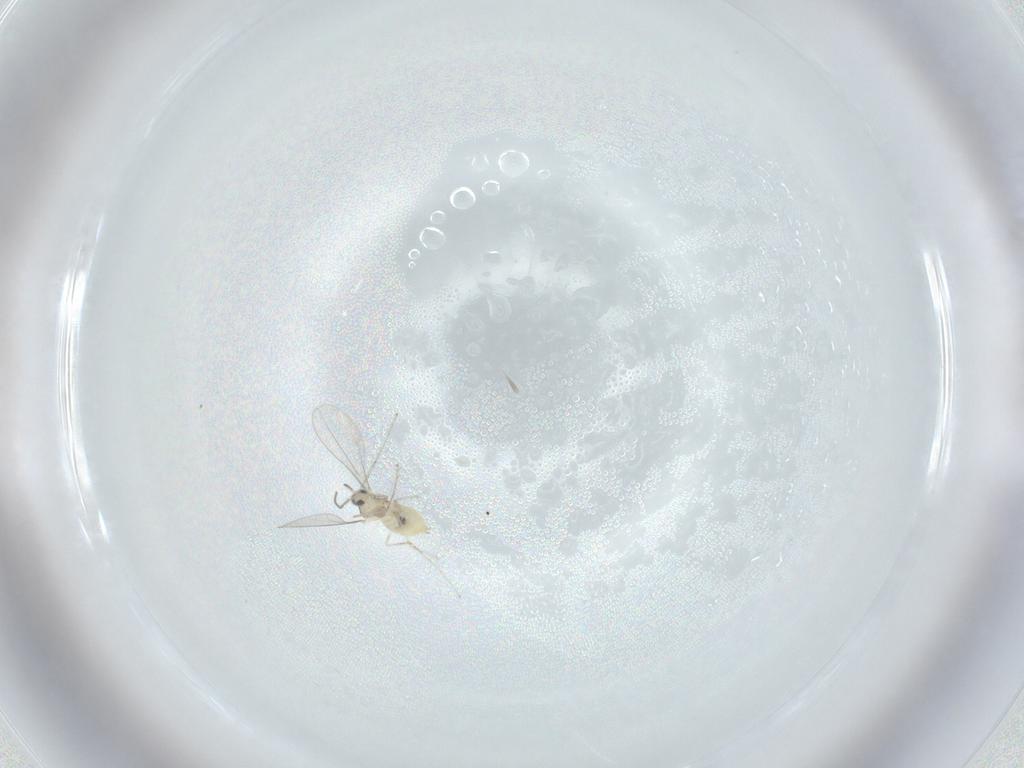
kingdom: Animalia
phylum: Arthropoda
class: Insecta
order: Diptera
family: Cecidomyiidae
